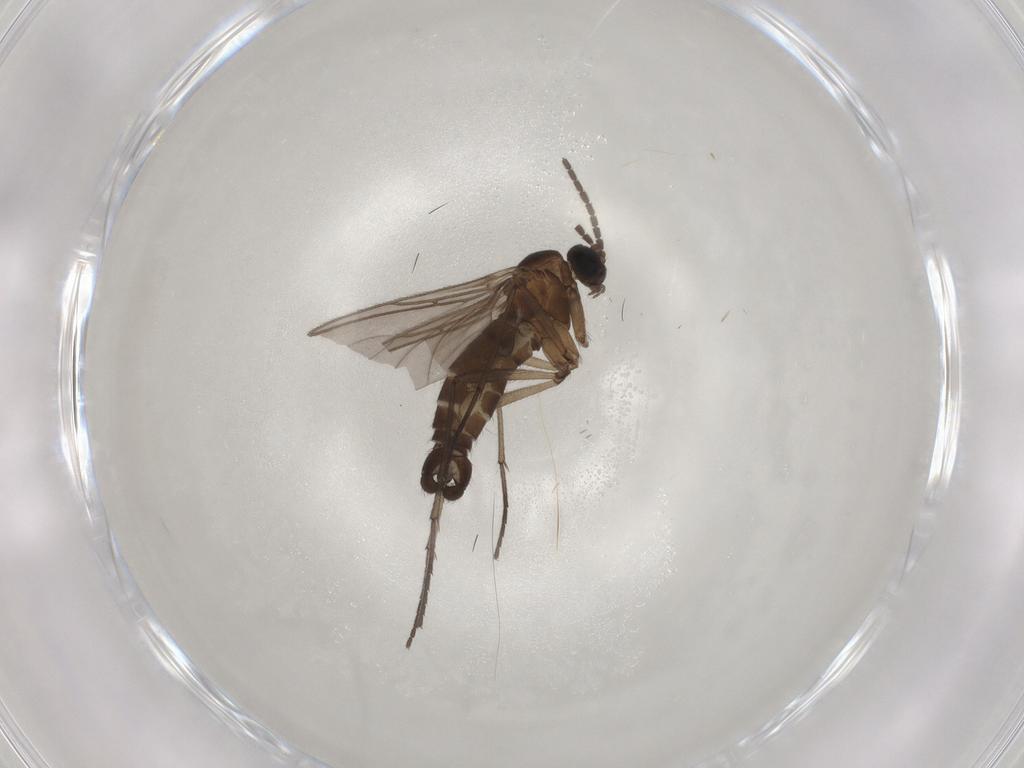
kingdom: Animalia
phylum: Arthropoda
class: Insecta
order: Diptera
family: Sciaridae
